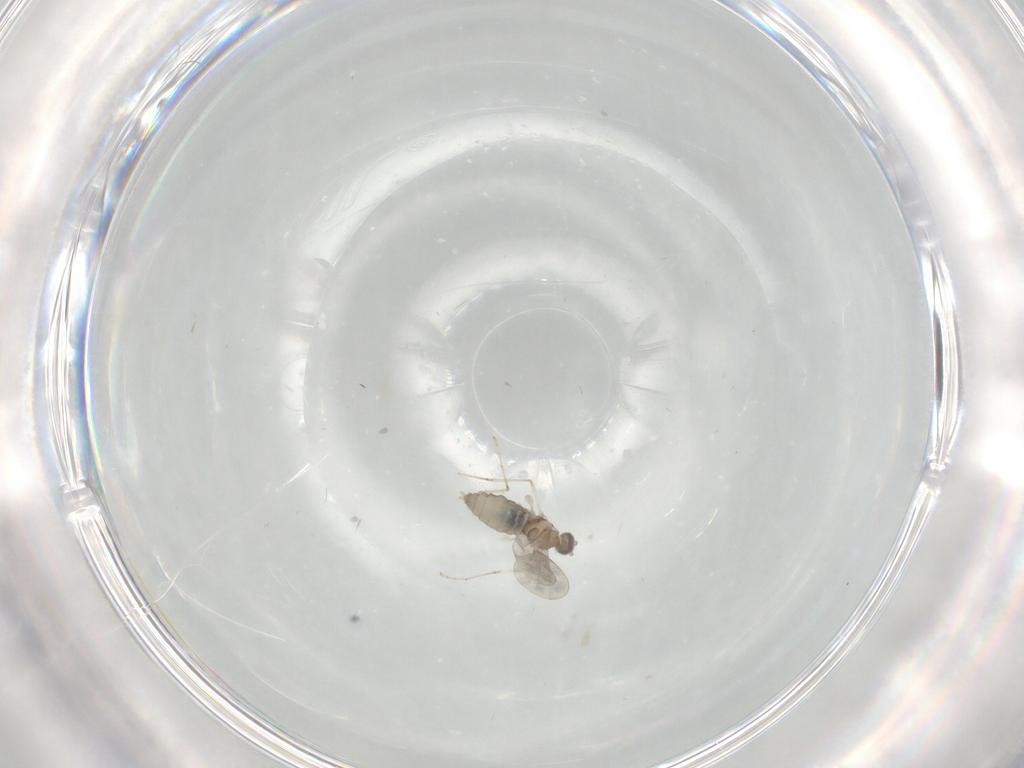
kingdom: Animalia
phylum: Arthropoda
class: Insecta
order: Diptera
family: Cecidomyiidae
